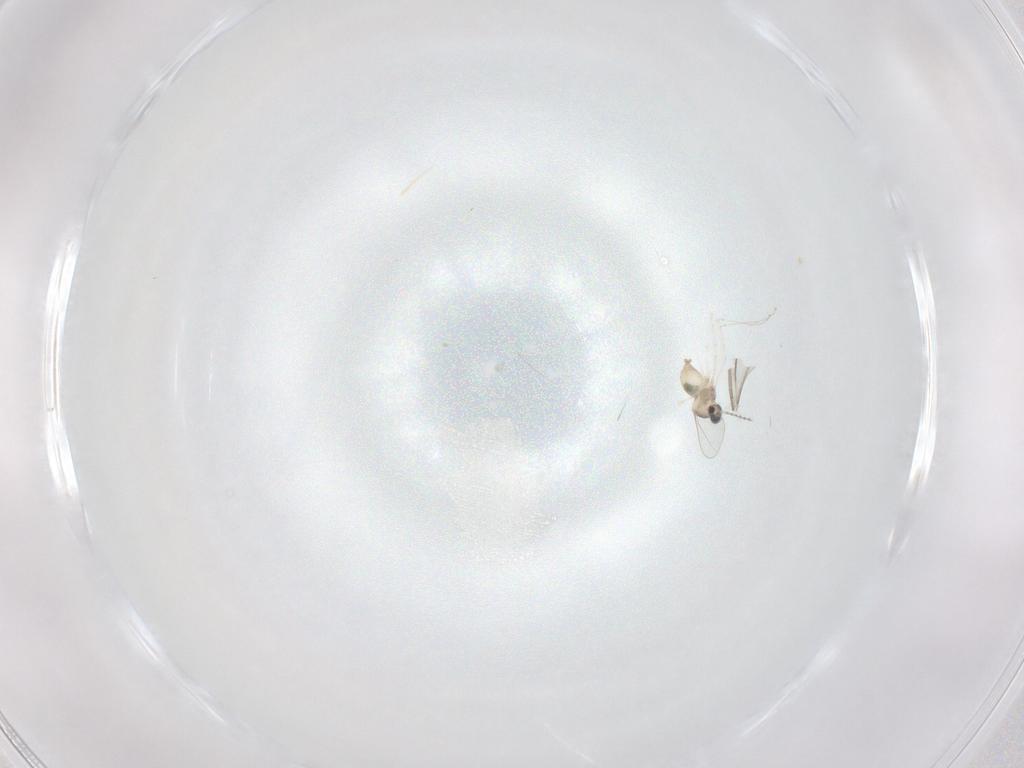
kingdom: Animalia
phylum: Arthropoda
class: Insecta
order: Diptera
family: Cecidomyiidae
